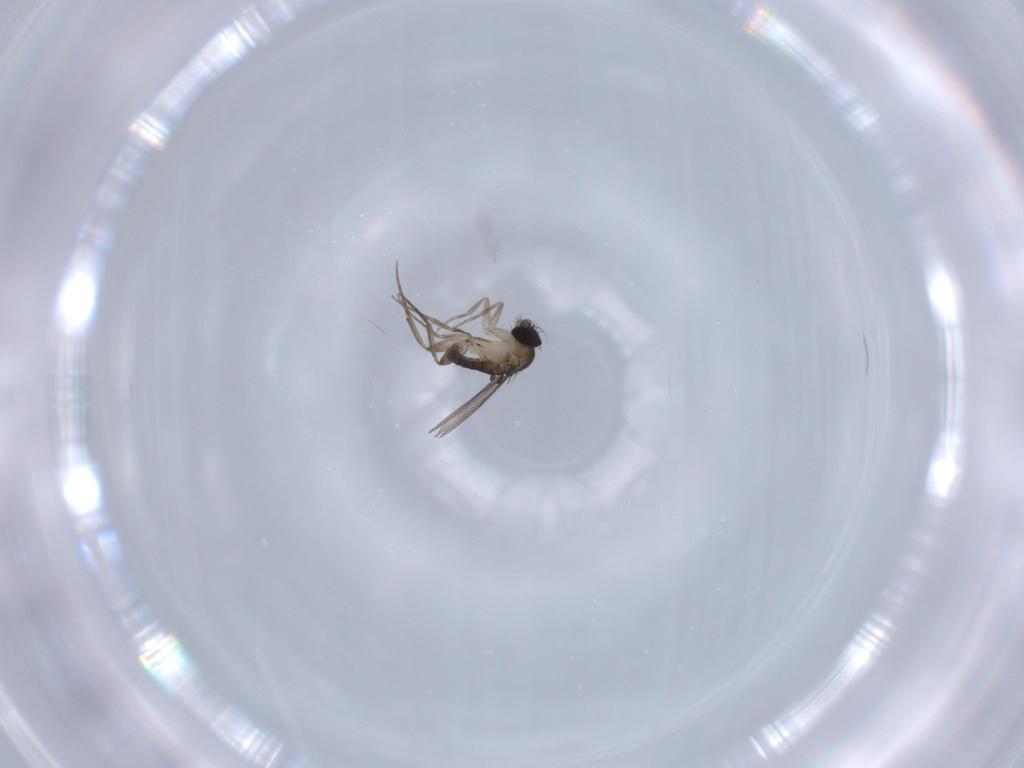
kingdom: Animalia
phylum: Arthropoda
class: Insecta
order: Diptera
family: Phoridae
